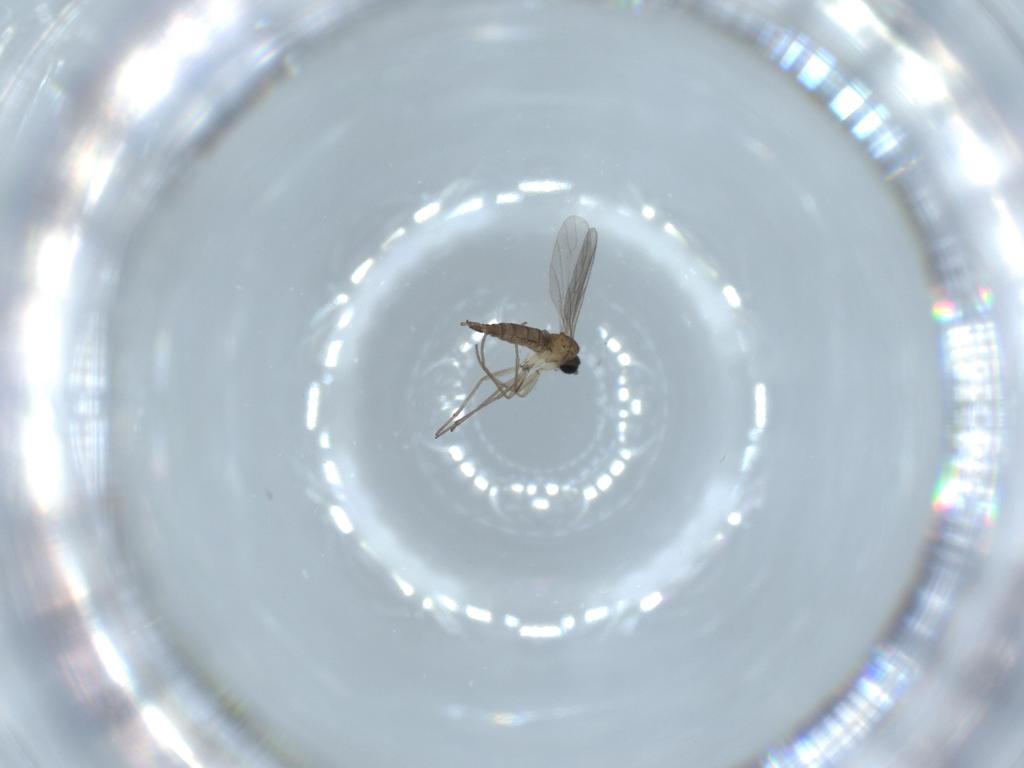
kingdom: Animalia
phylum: Arthropoda
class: Insecta
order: Diptera
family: Sciaridae
